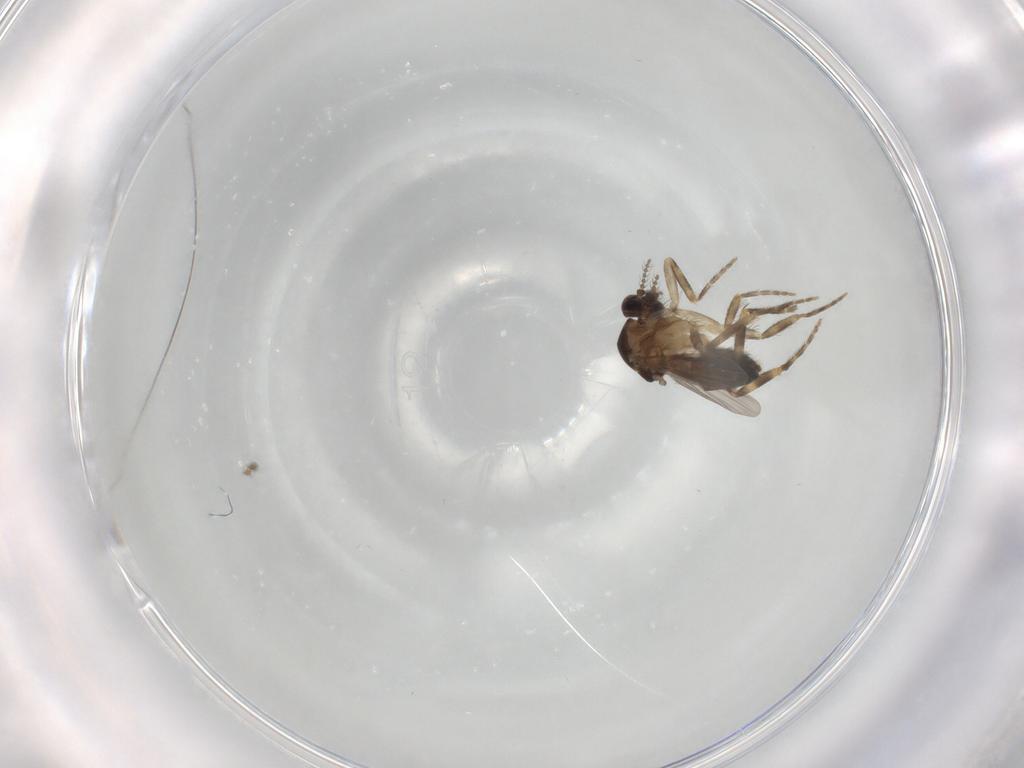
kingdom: Animalia
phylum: Arthropoda
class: Insecta
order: Diptera
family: Ceratopogonidae
